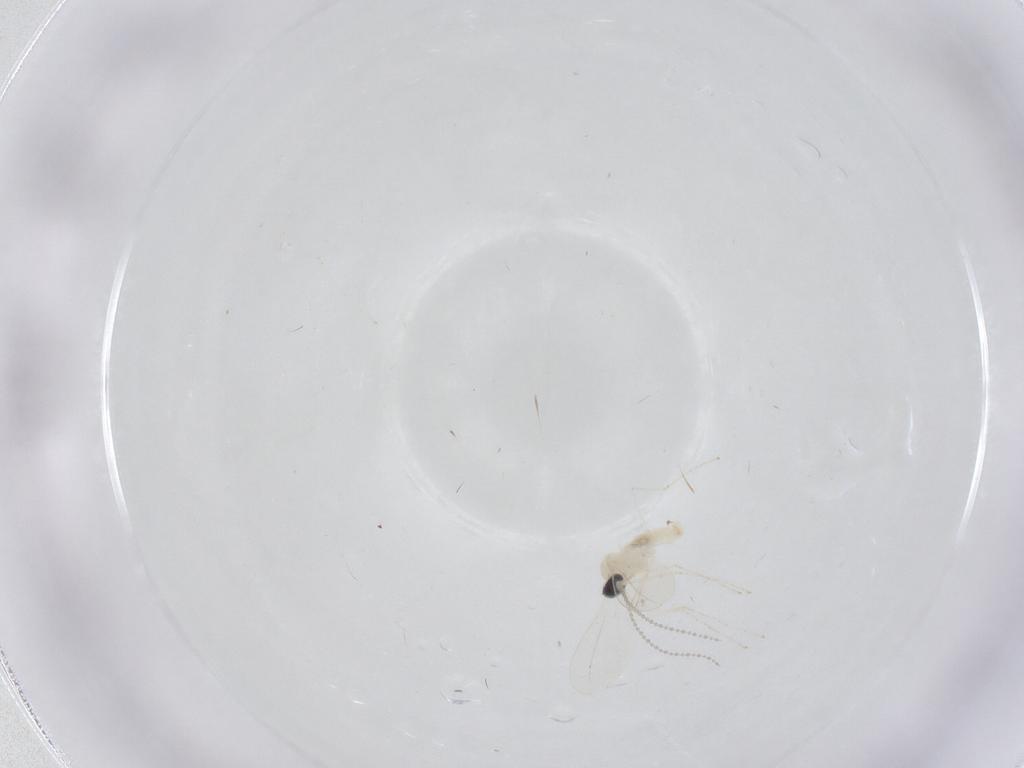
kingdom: Animalia
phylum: Arthropoda
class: Insecta
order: Diptera
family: Cecidomyiidae
